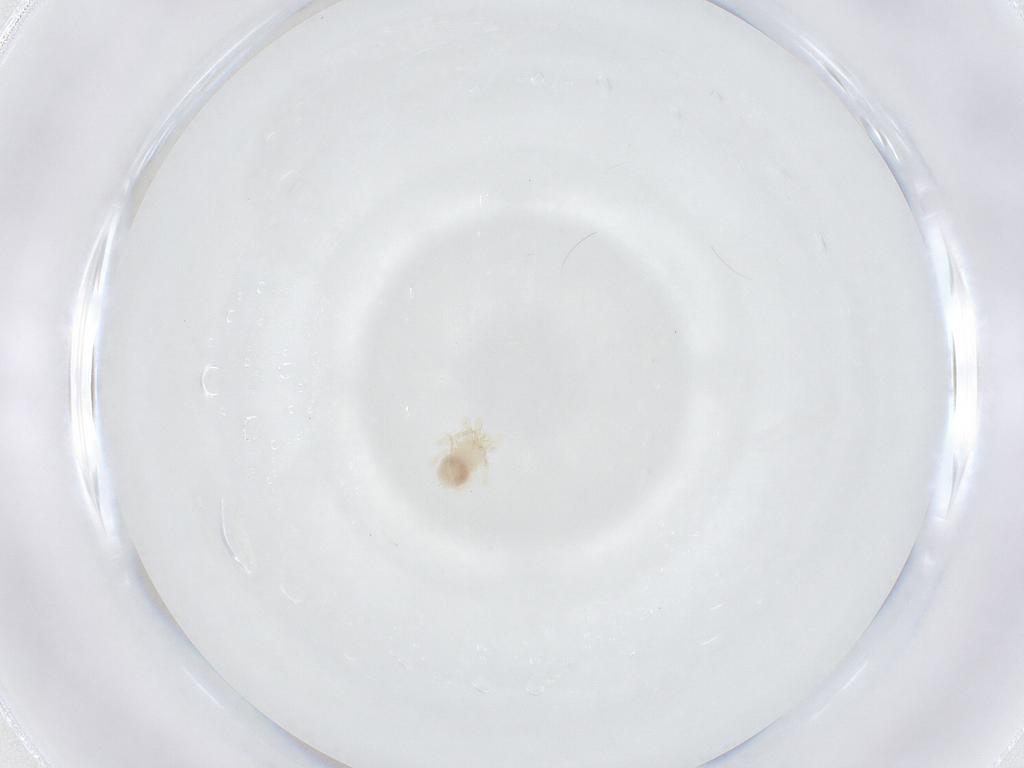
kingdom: Animalia
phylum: Arthropoda
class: Arachnida
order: Trombidiformes
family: Anystidae
